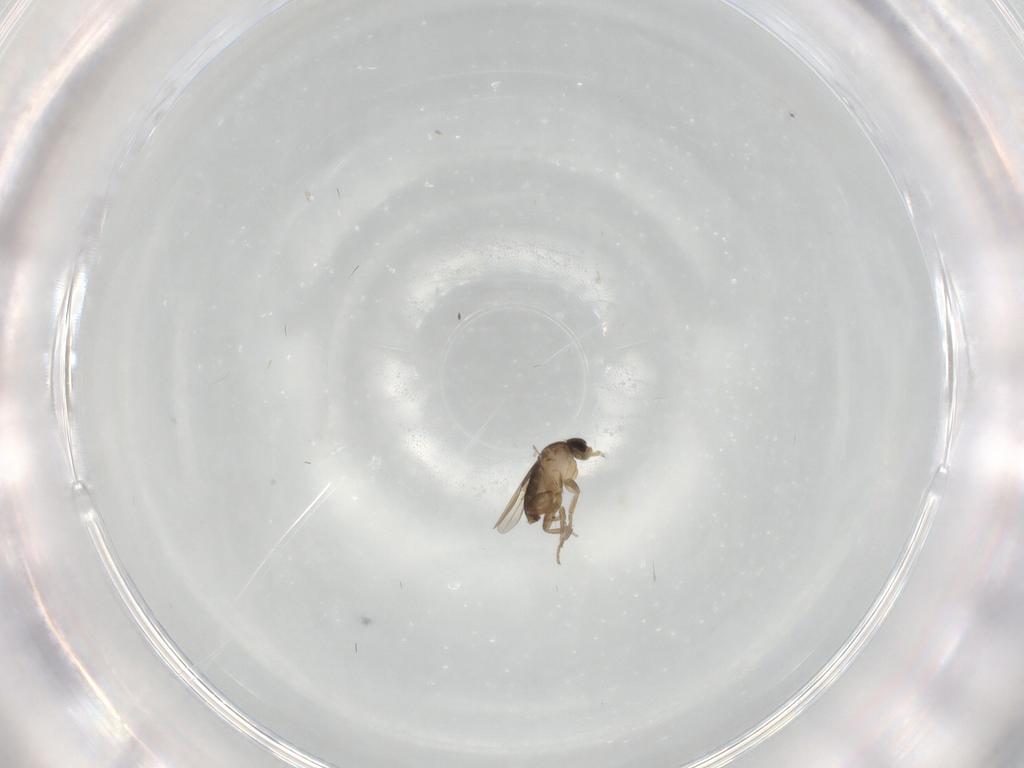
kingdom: Animalia
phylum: Arthropoda
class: Insecta
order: Diptera
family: Phoridae
